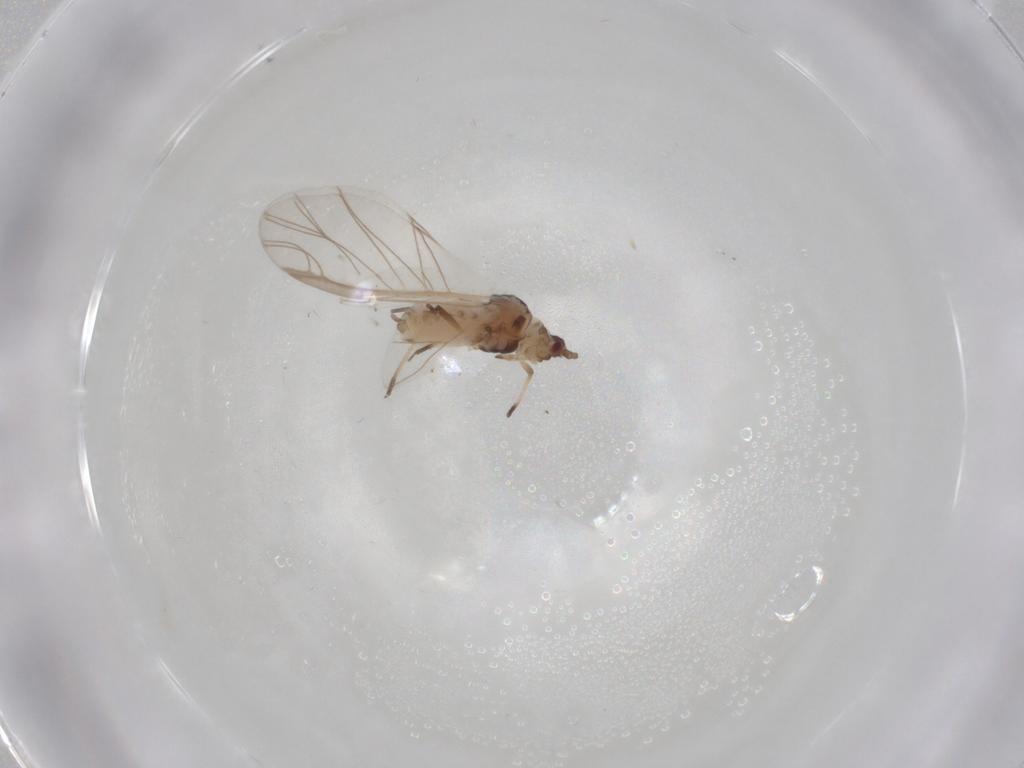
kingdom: Animalia
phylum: Arthropoda
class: Insecta
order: Hemiptera
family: Aphididae
